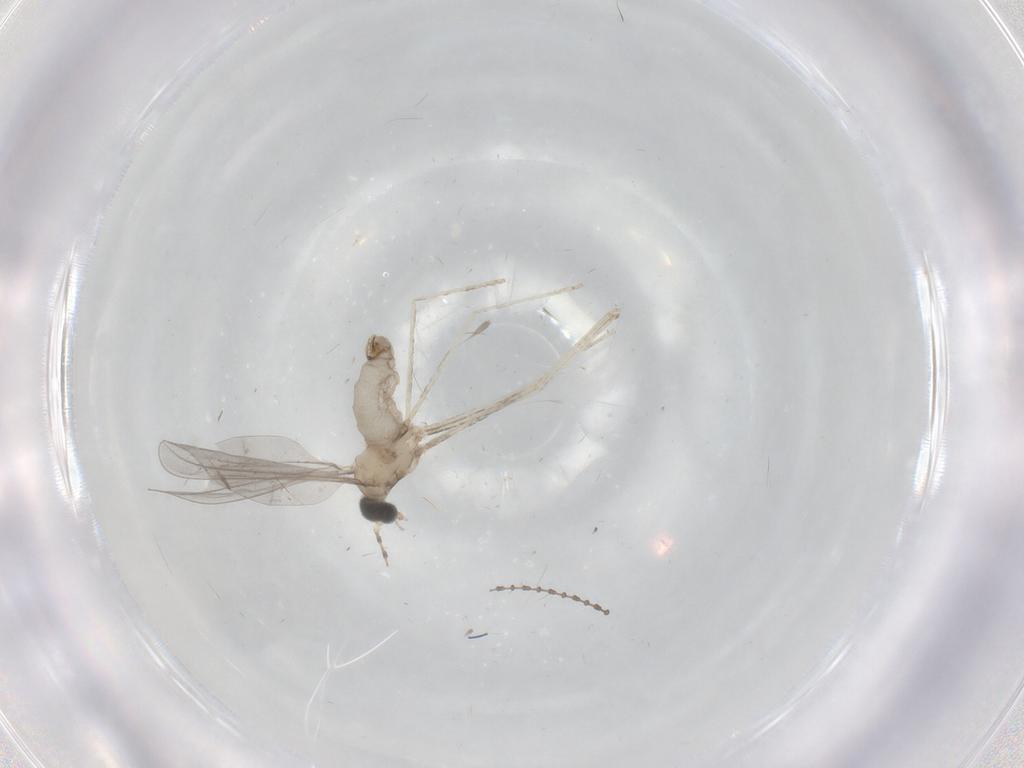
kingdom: Animalia
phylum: Arthropoda
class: Insecta
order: Diptera
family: Cecidomyiidae
